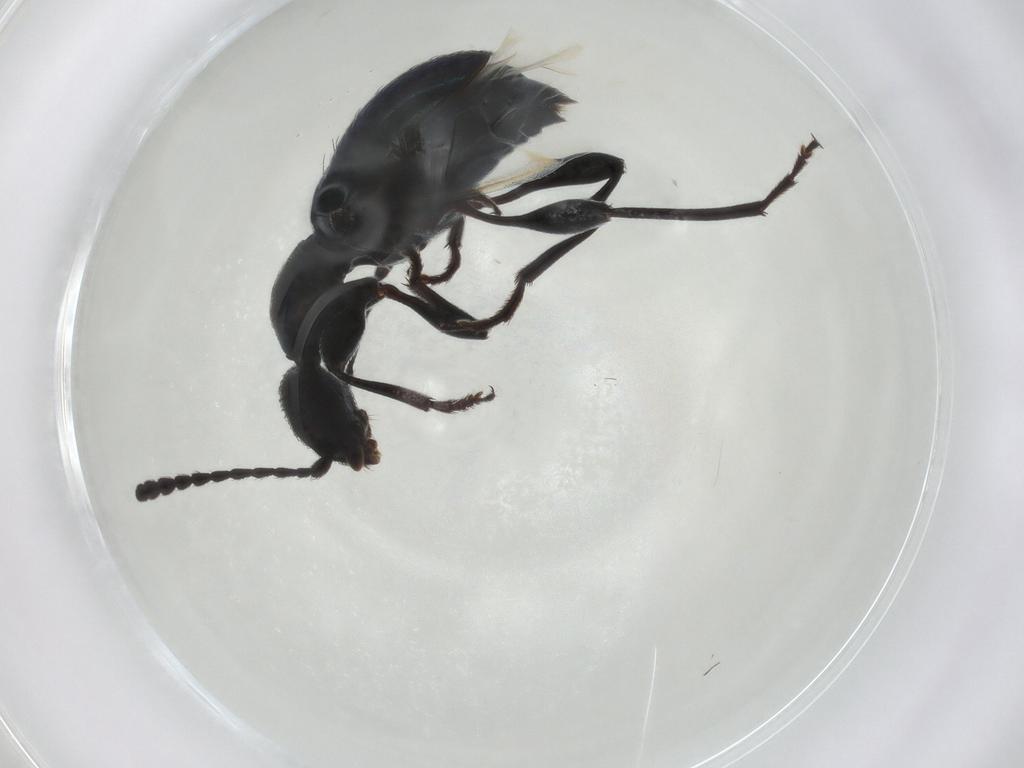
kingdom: Animalia
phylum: Arthropoda
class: Insecta
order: Coleoptera
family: Anthicidae
